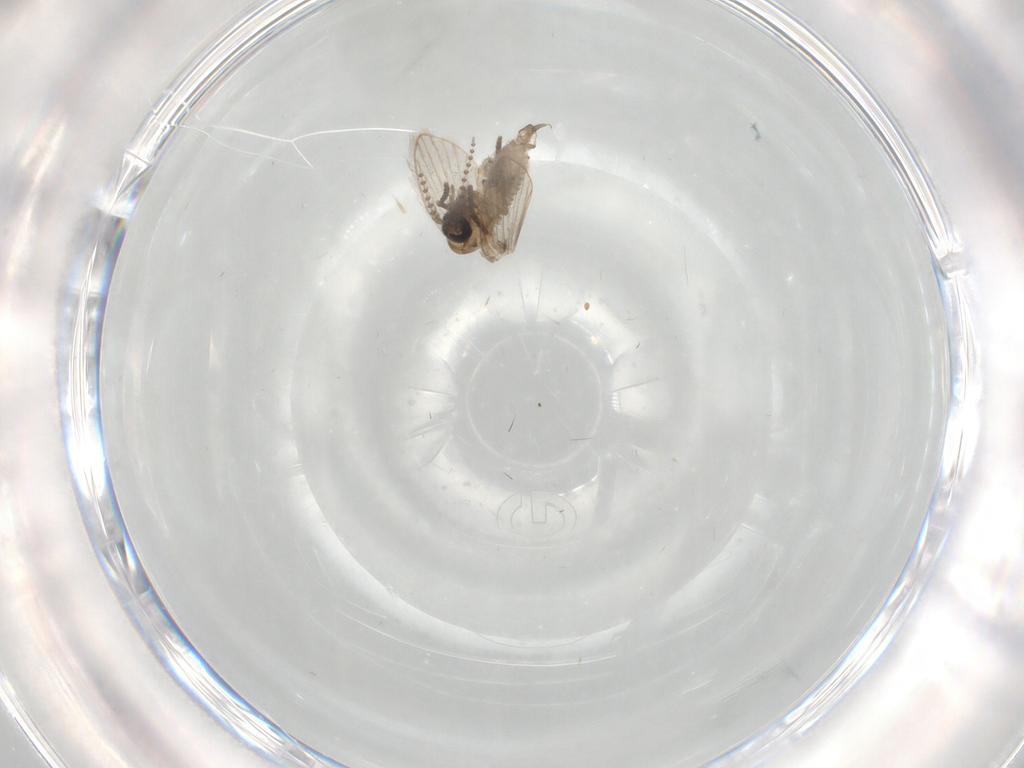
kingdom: Animalia
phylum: Arthropoda
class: Insecta
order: Diptera
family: Psychodidae
